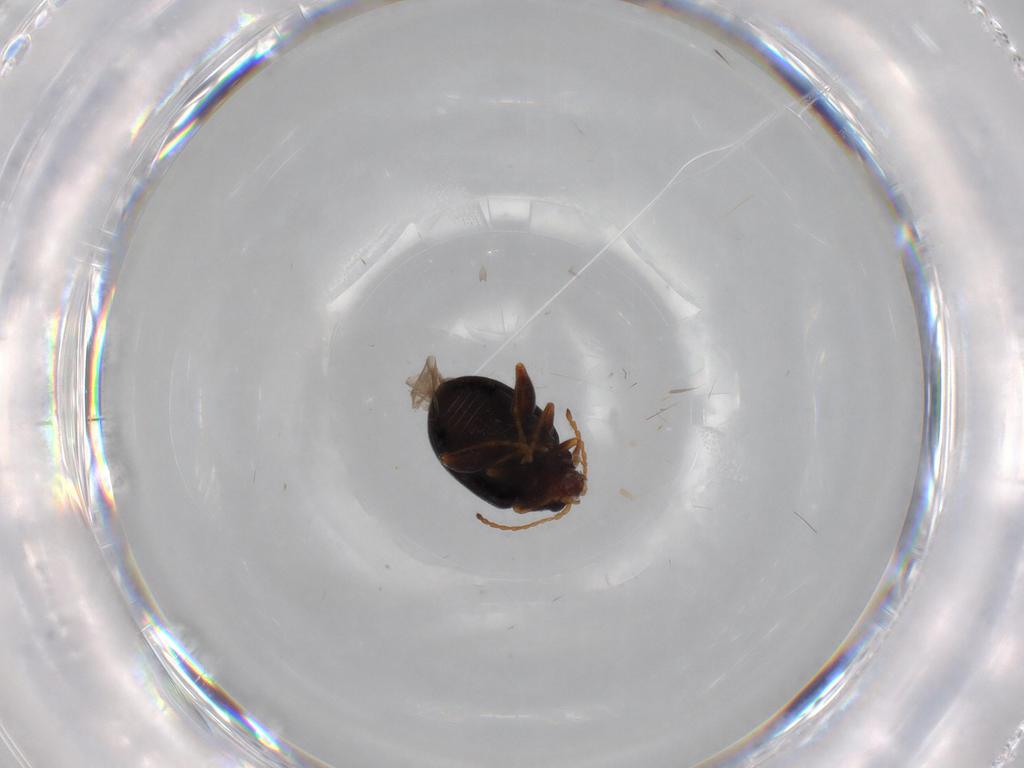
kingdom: Animalia
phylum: Arthropoda
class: Insecta
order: Coleoptera
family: Chrysomelidae
